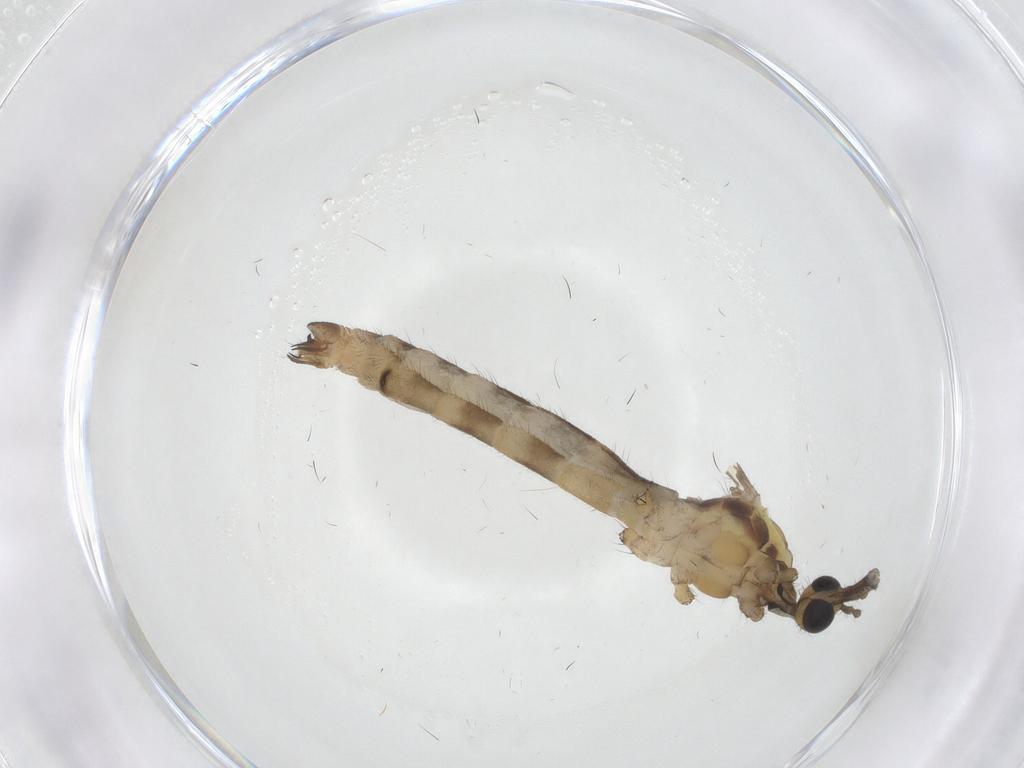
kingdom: Animalia
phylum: Arthropoda
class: Insecta
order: Diptera
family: Limoniidae
